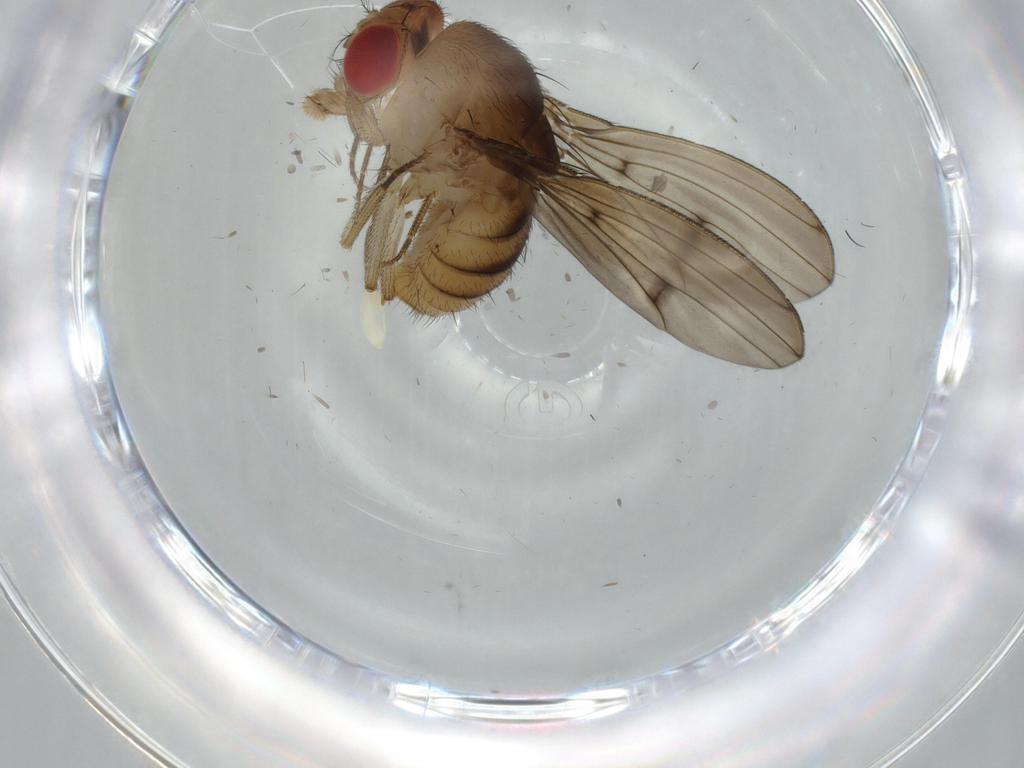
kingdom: Animalia
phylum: Arthropoda
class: Insecta
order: Diptera
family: Drosophilidae
